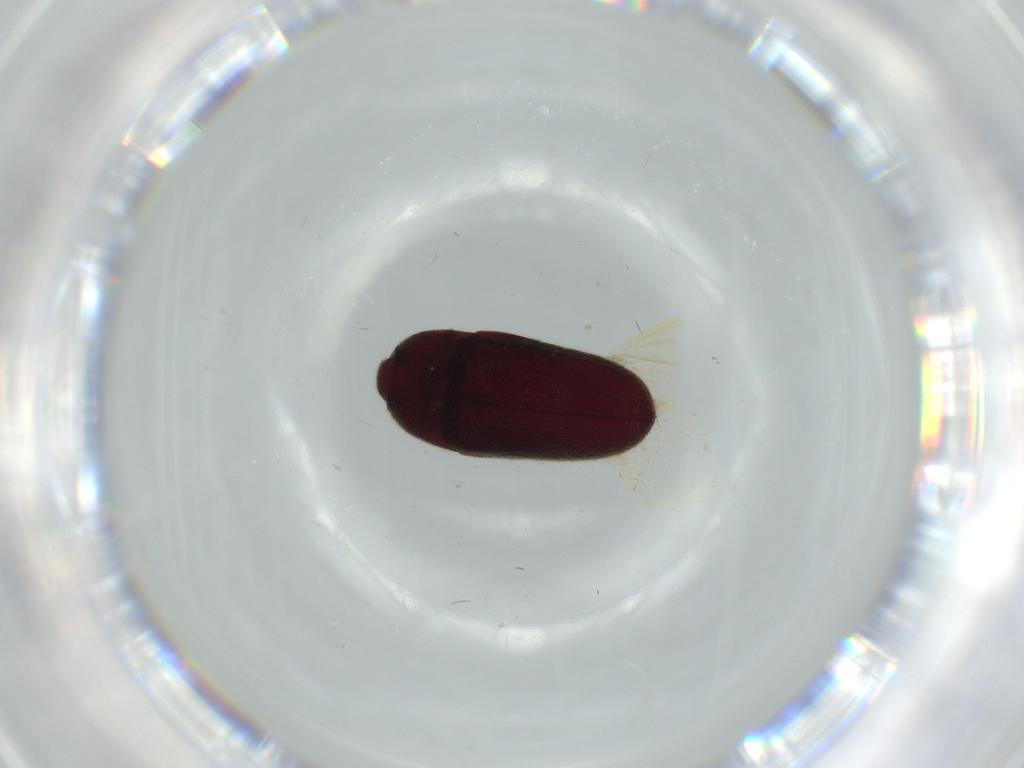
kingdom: Animalia
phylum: Arthropoda
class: Insecta
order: Coleoptera
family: Throscidae
